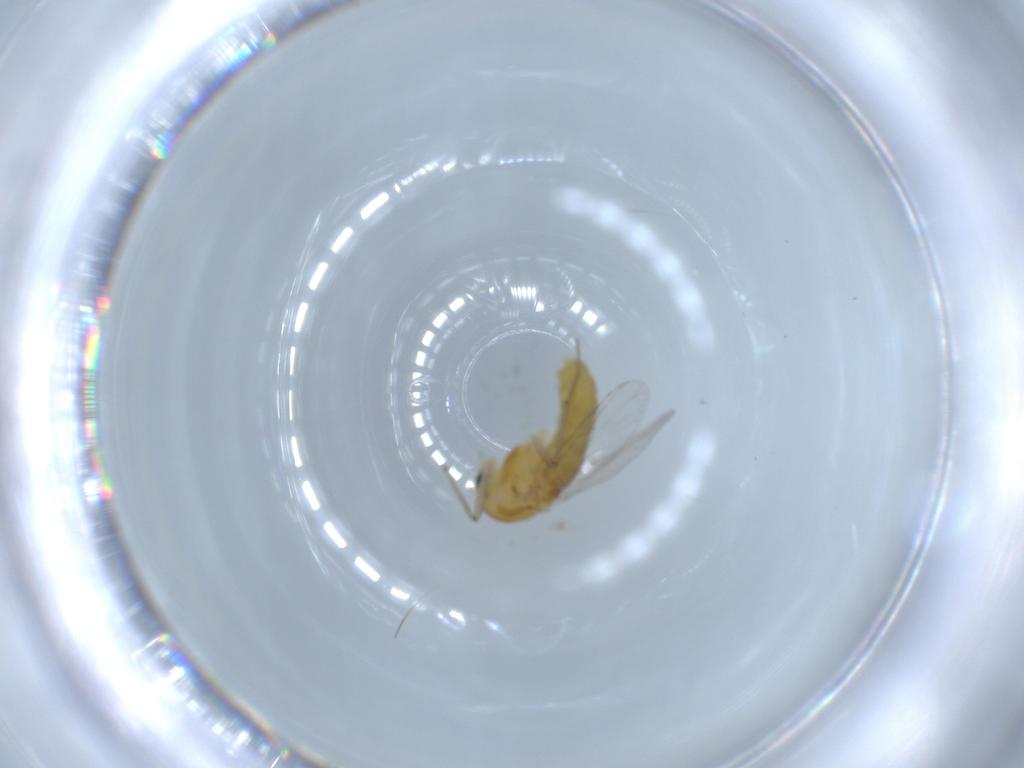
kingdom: Animalia
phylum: Arthropoda
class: Insecta
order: Diptera
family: Chironomidae
